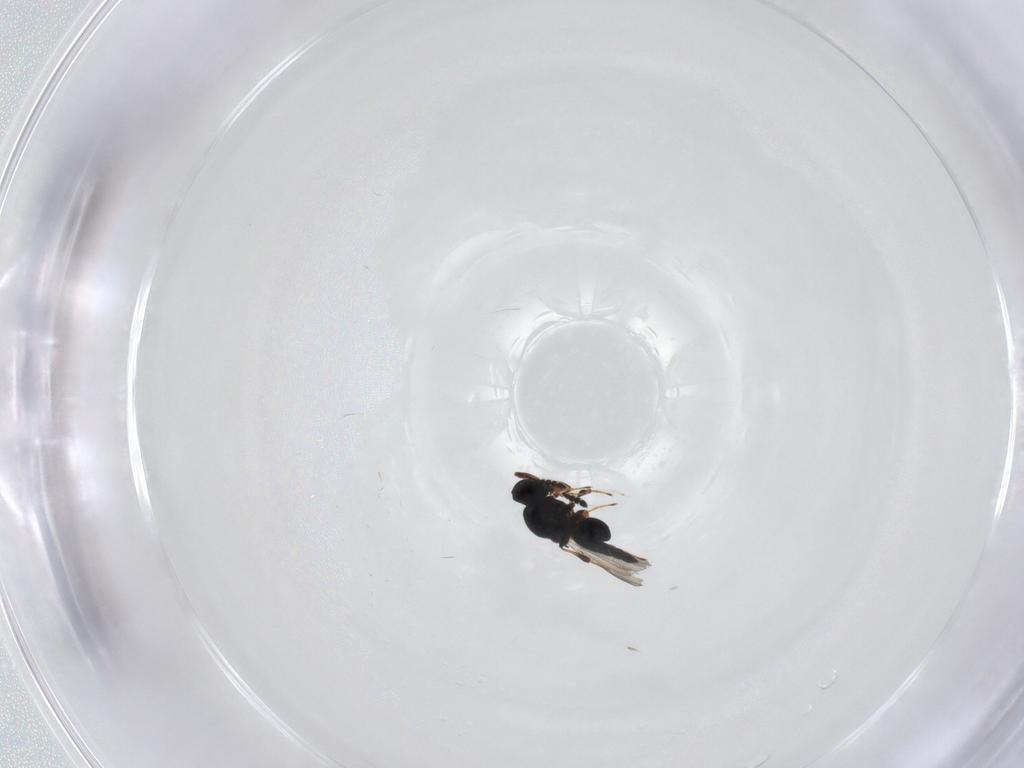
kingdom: Animalia
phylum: Arthropoda
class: Insecta
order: Hymenoptera
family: Platygastridae
